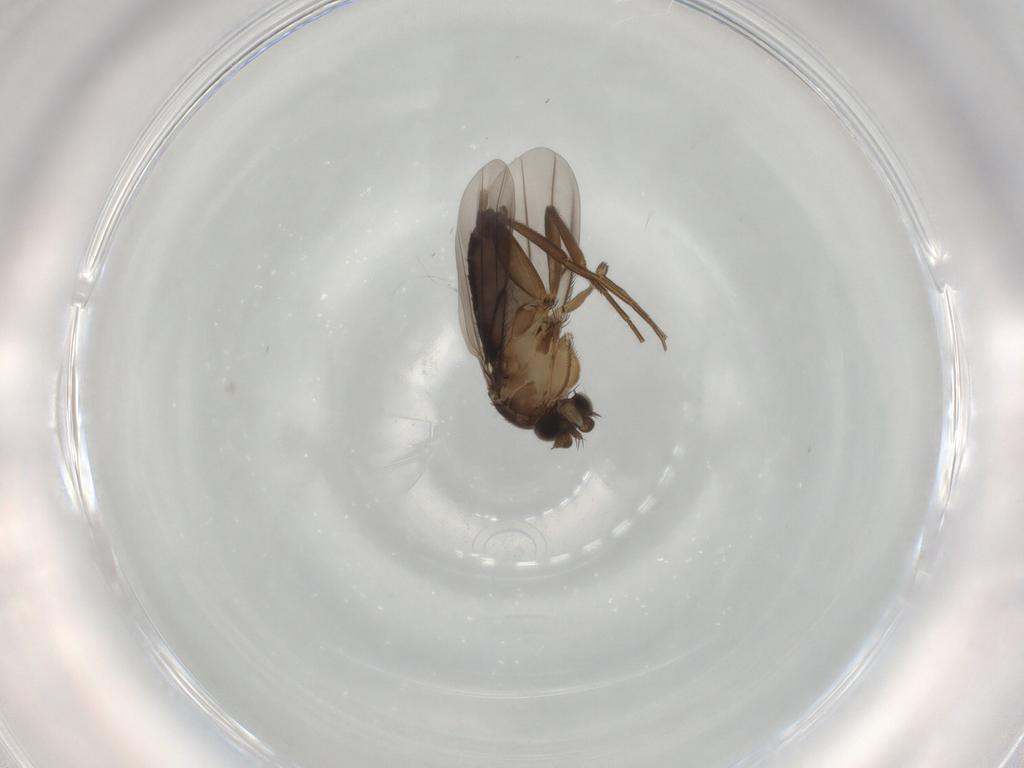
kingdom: Animalia
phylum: Arthropoda
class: Insecta
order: Diptera
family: Phoridae
